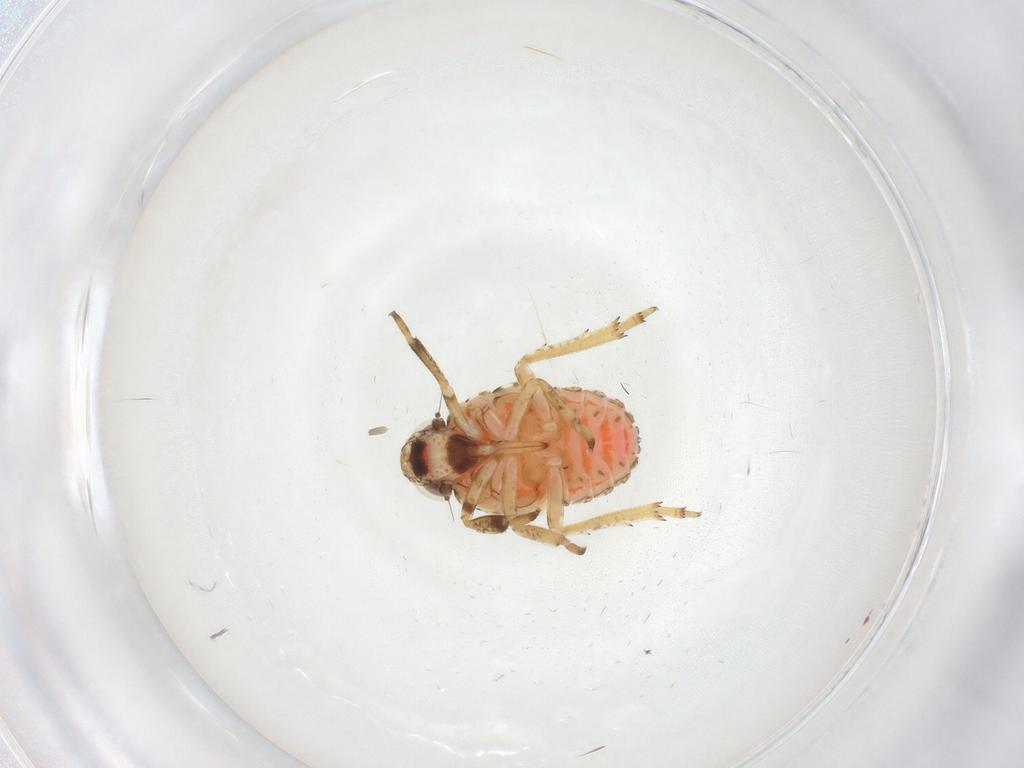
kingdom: Animalia
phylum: Arthropoda
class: Insecta
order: Hemiptera
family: Issidae
